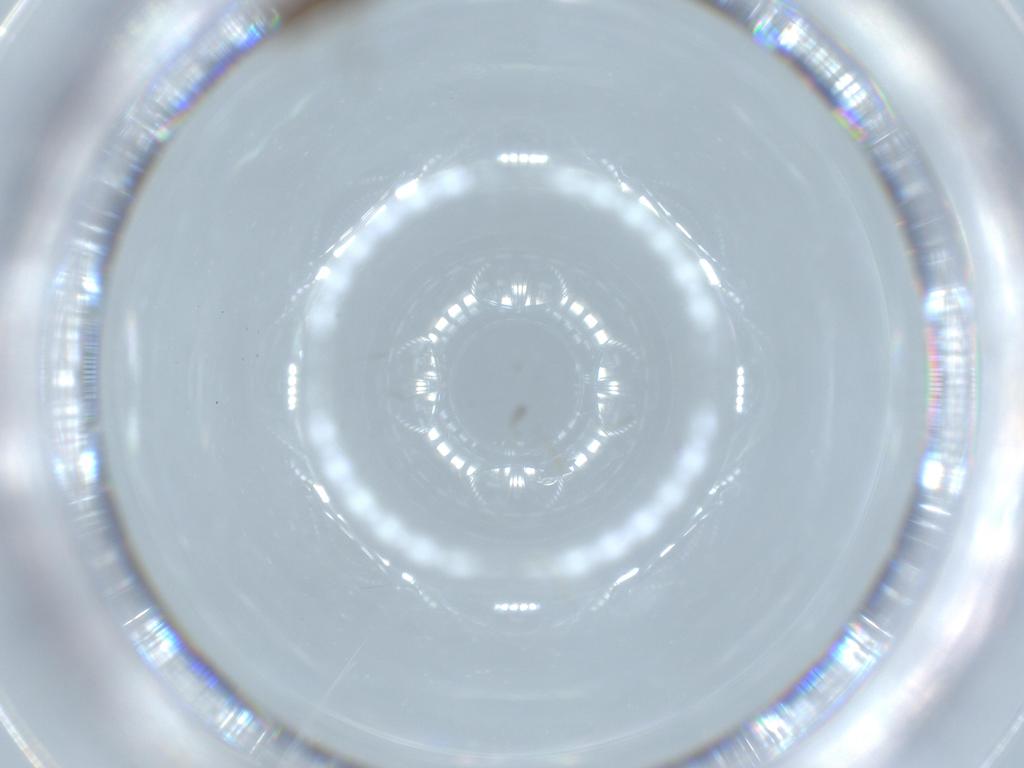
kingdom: Animalia
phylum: Arthropoda
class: Insecta
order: Hymenoptera
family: Diapriidae
